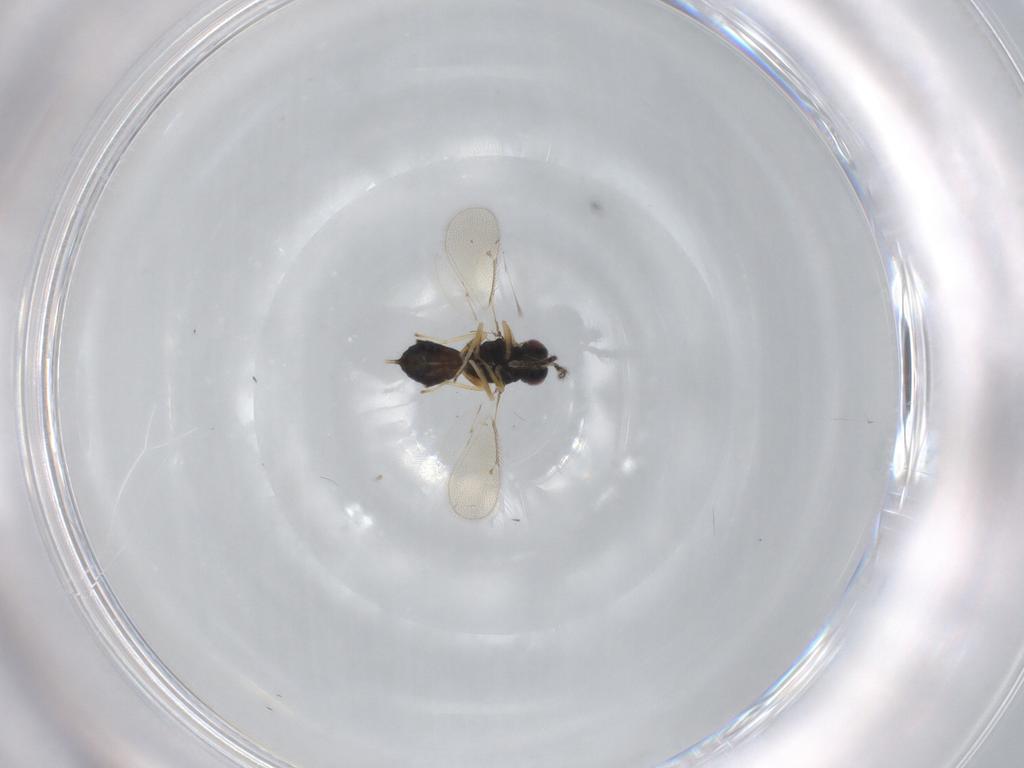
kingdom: Animalia
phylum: Arthropoda
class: Insecta
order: Hymenoptera
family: Eulophidae
